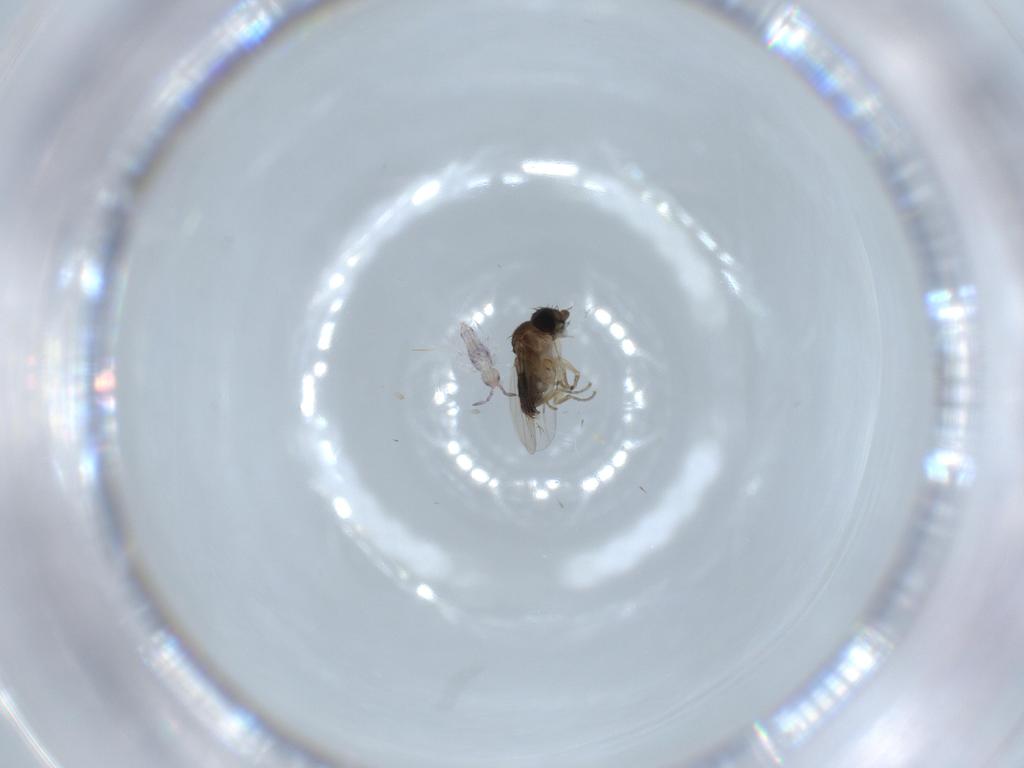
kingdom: Animalia
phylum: Arthropoda
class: Insecta
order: Diptera
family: Phoridae
